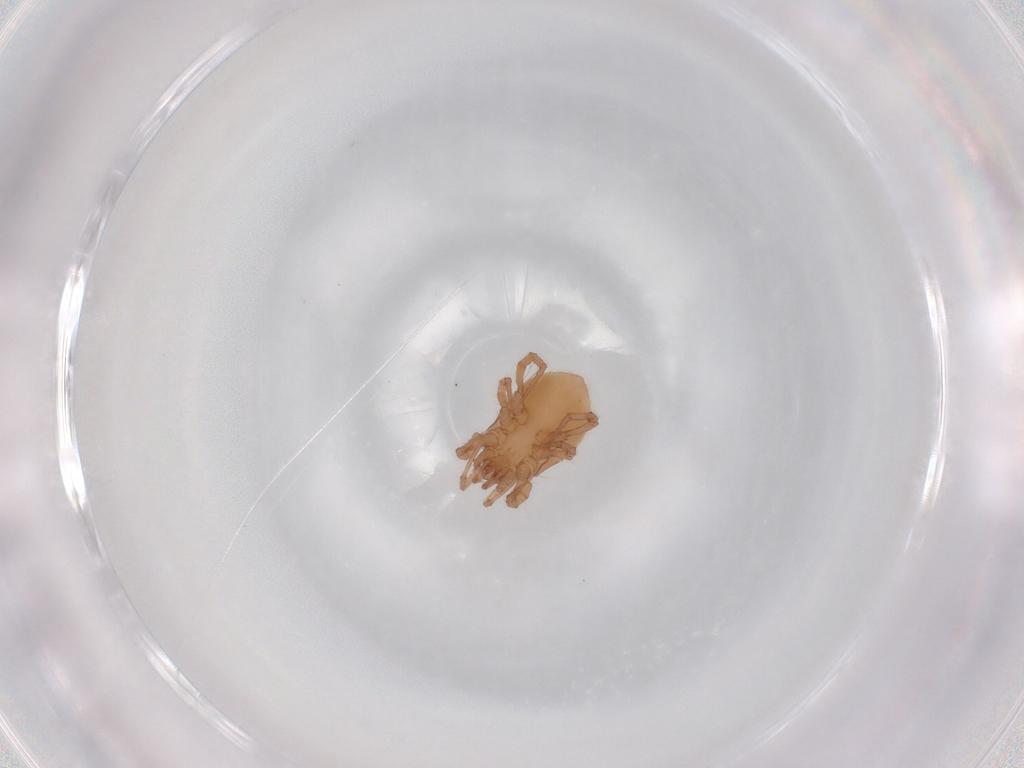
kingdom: Animalia
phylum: Arthropoda
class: Arachnida
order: Mesostigmata
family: Parasitidae
